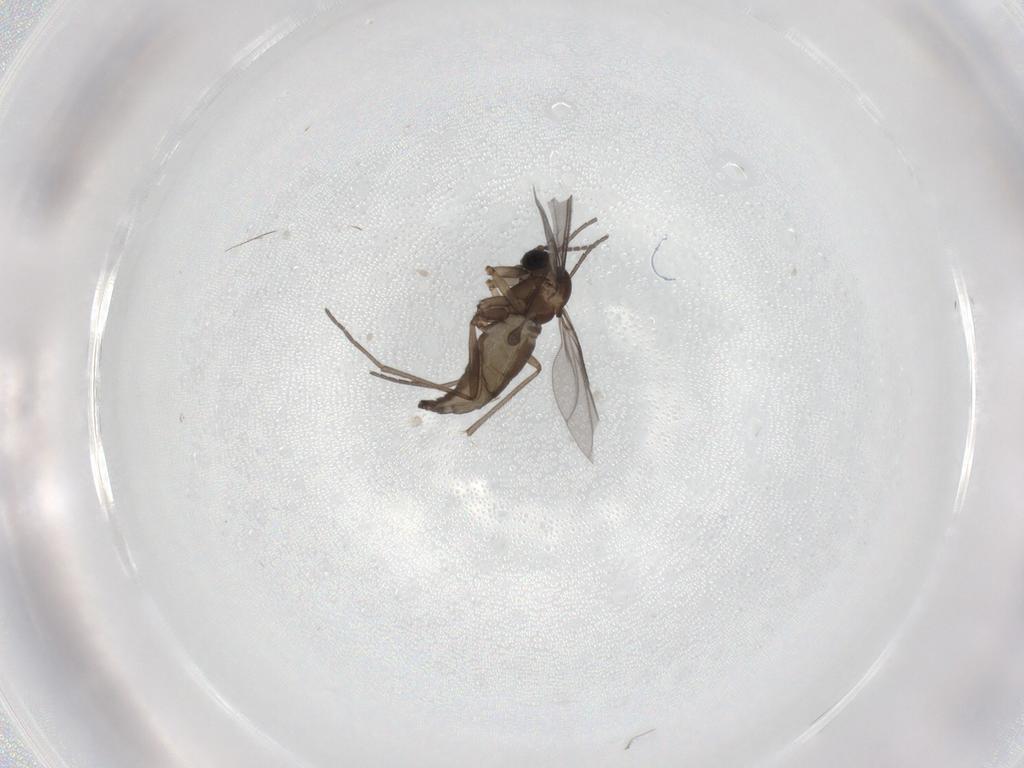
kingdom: Animalia
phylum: Arthropoda
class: Insecta
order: Diptera
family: Sciaridae
